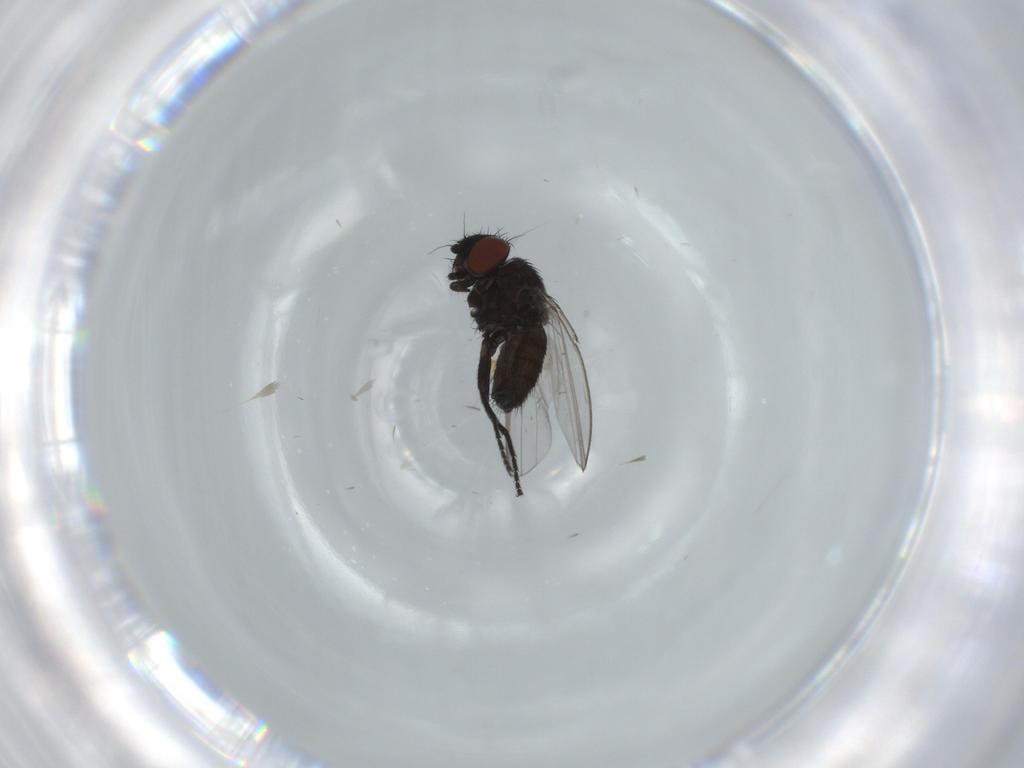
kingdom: Animalia
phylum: Arthropoda
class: Insecta
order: Diptera
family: Milichiidae
